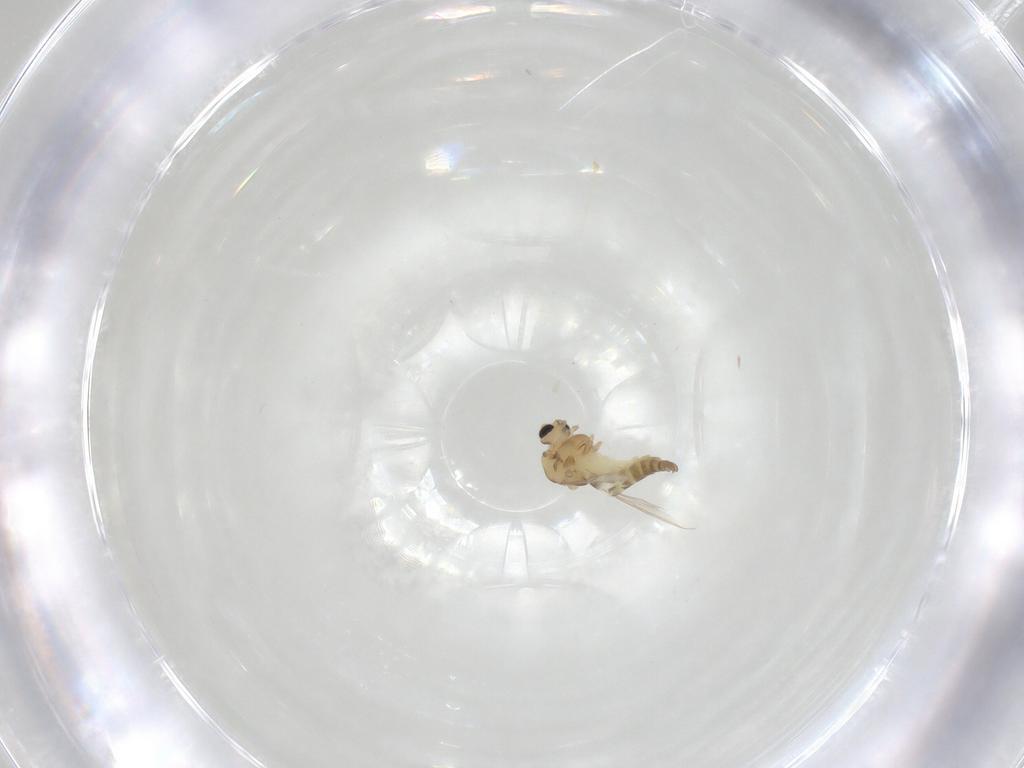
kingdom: Animalia
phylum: Arthropoda
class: Insecta
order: Diptera
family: Chironomidae
